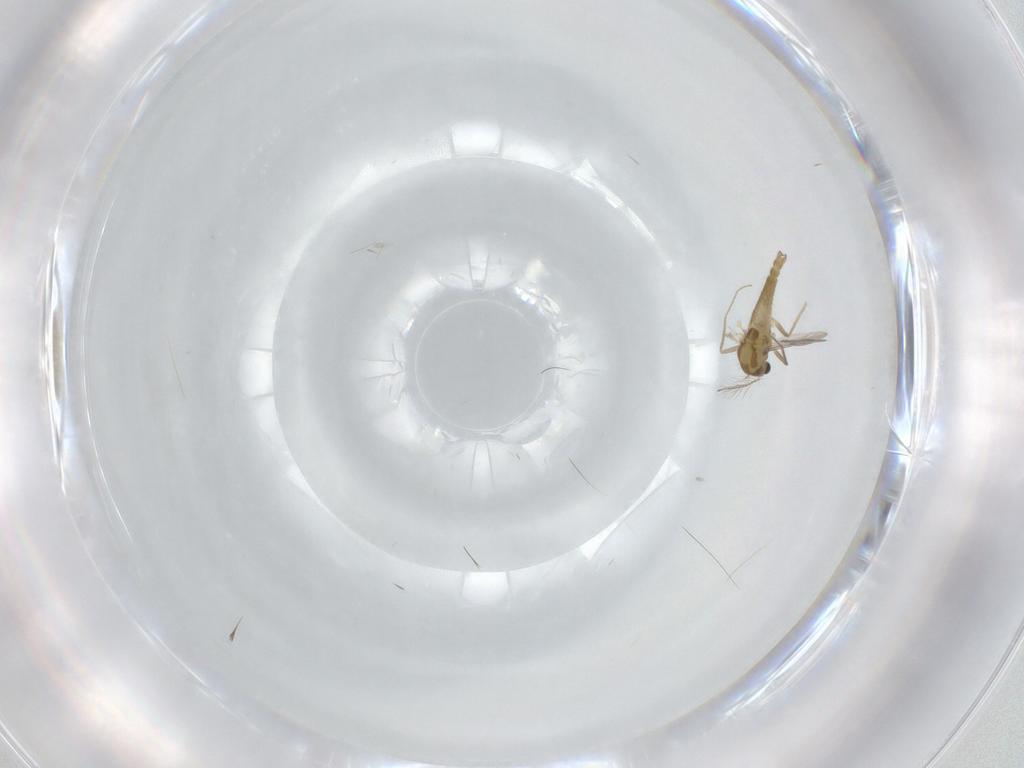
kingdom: Animalia
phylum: Arthropoda
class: Insecta
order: Diptera
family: Chironomidae
